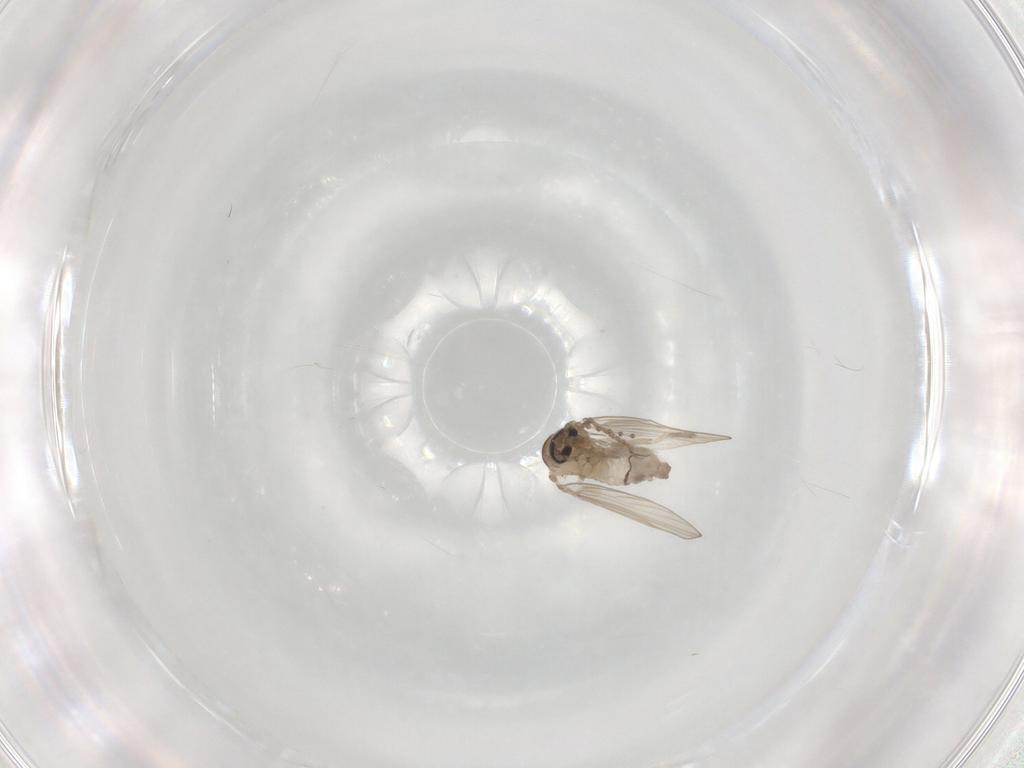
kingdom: Animalia
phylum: Arthropoda
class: Insecta
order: Diptera
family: Psychodidae
